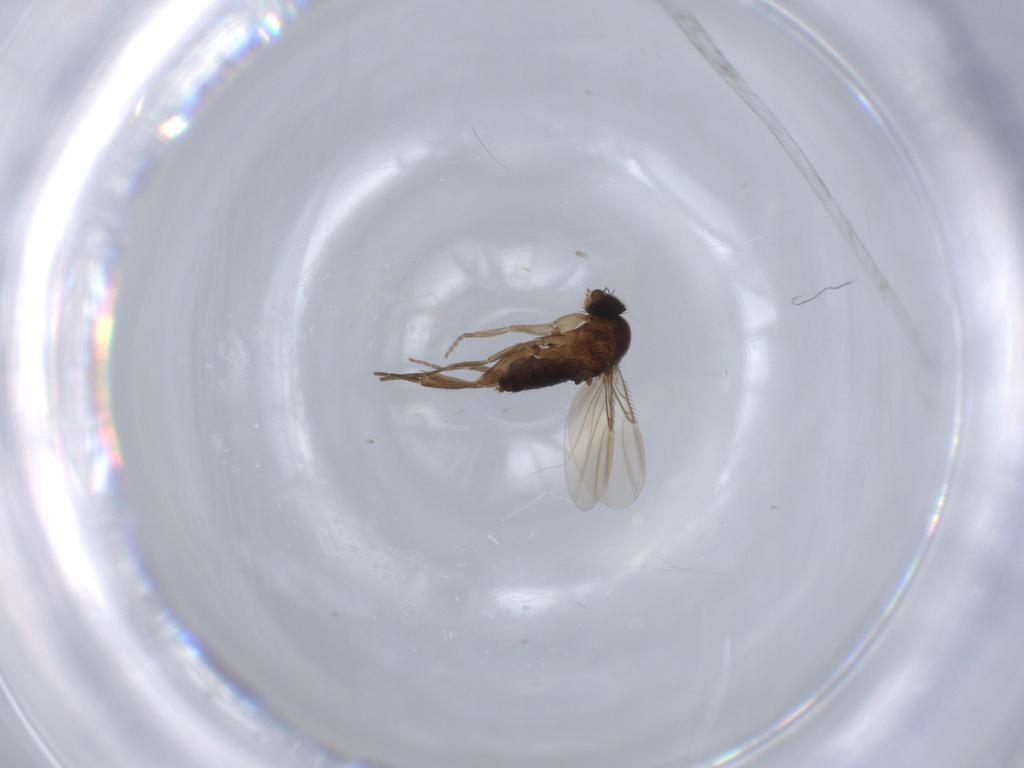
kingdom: Animalia
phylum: Arthropoda
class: Insecta
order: Diptera
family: Phoridae
